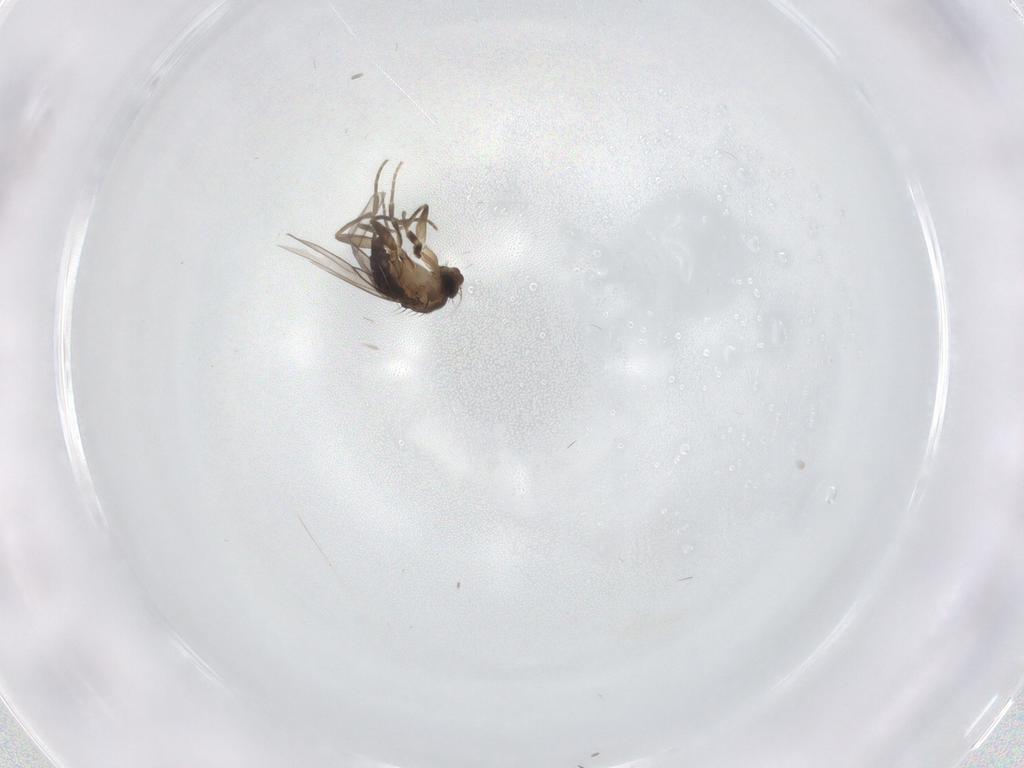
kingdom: Animalia
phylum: Arthropoda
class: Insecta
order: Diptera
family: Phoridae
